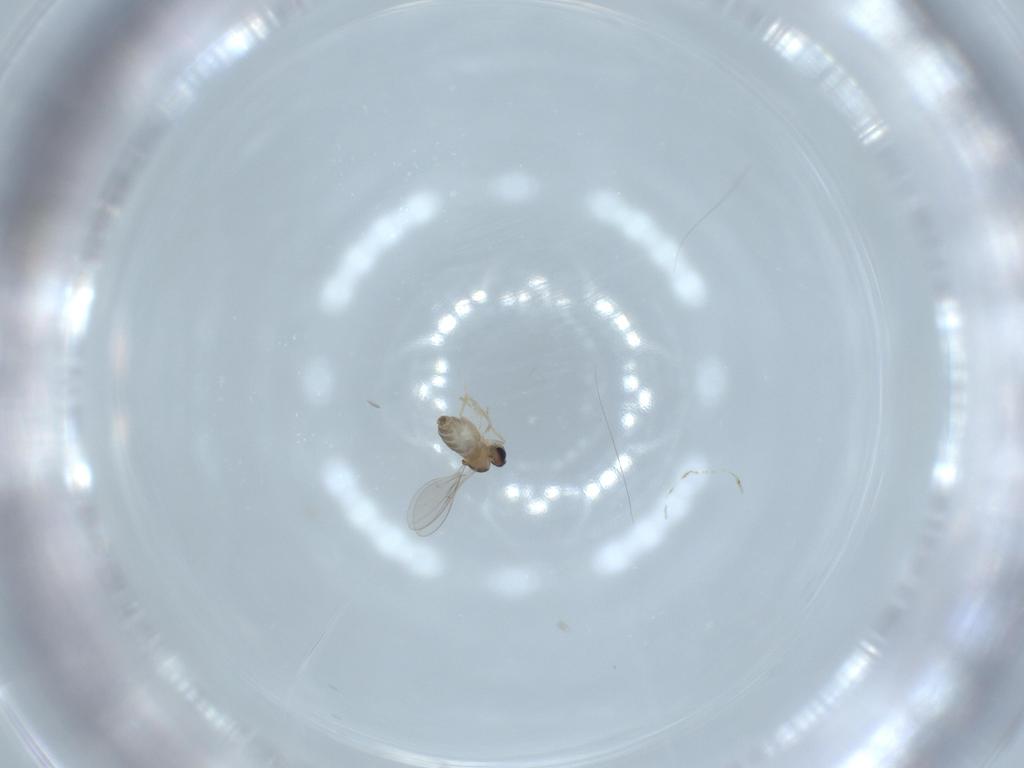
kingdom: Animalia
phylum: Arthropoda
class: Insecta
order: Diptera
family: Cecidomyiidae
